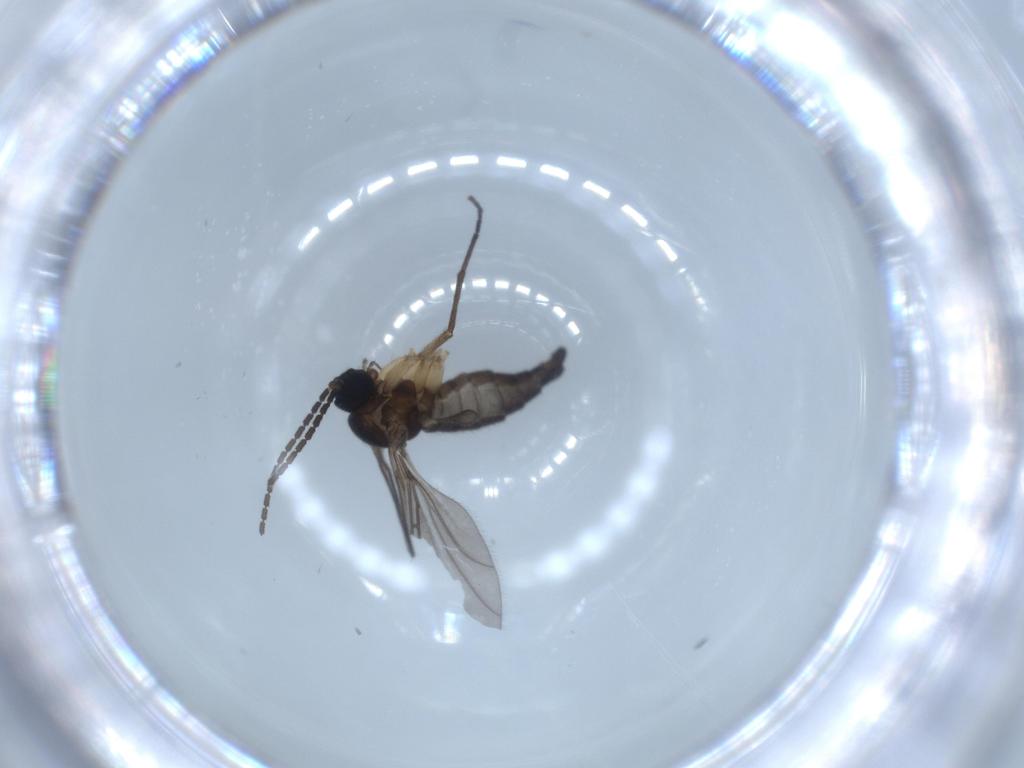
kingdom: Animalia
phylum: Arthropoda
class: Insecta
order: Diptera
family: Sciaridae
